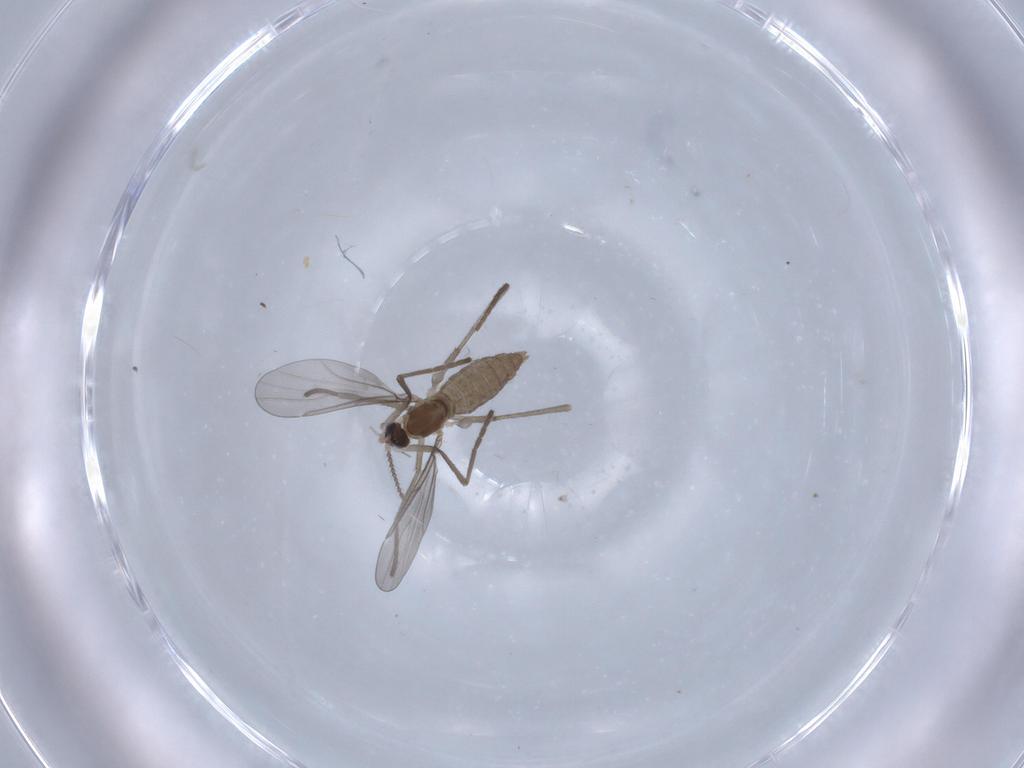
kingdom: Animalia
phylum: Arthropoda
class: Insecta
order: Diptera
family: Cecidomyiidae
